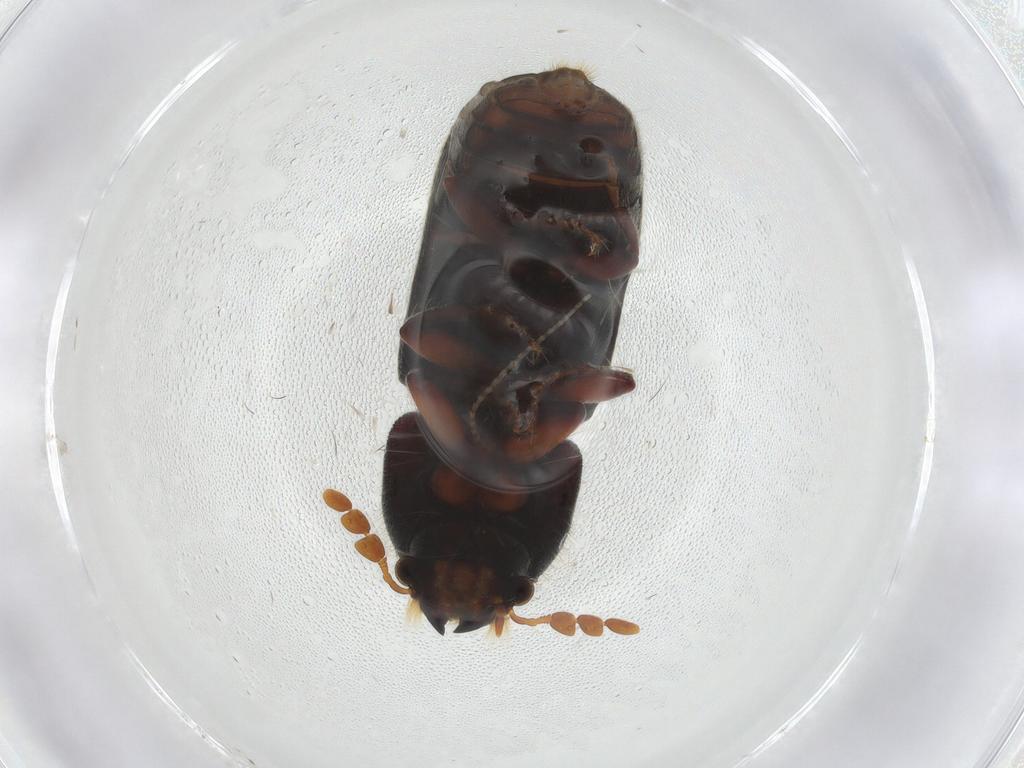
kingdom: Animalia
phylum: Arthropoda
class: Insecta
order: Coleoptera
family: Bostrichidae
